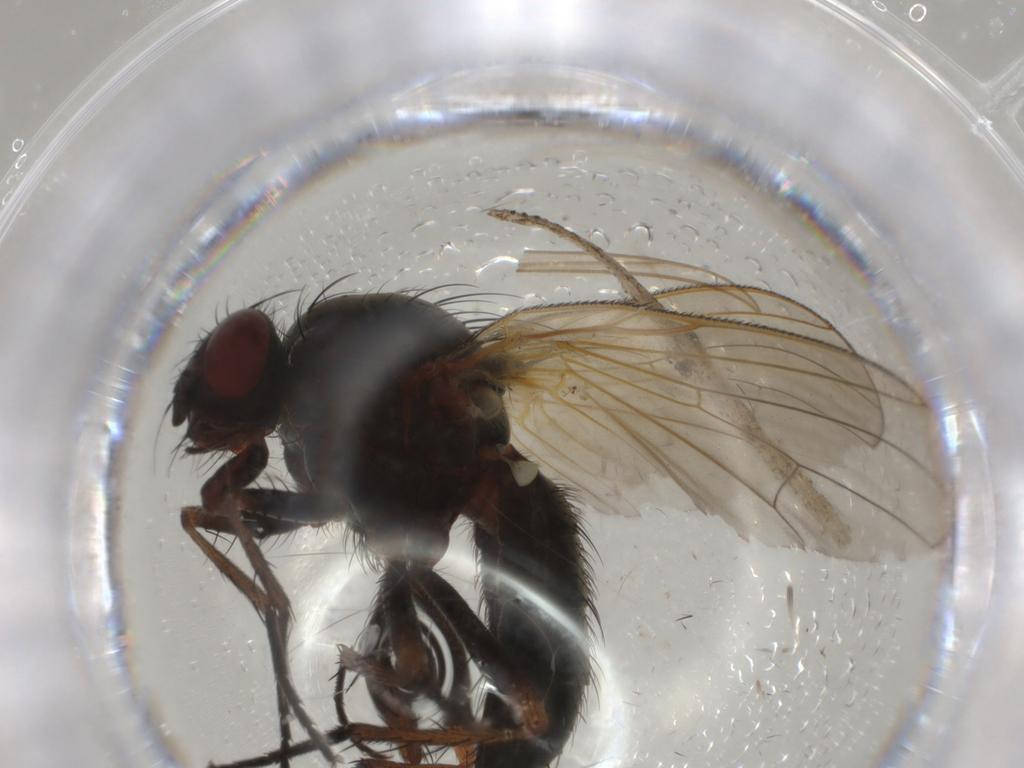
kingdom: Animalia
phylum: Arthropoda
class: Insecta
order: Diptera
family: Anthomyiidae
